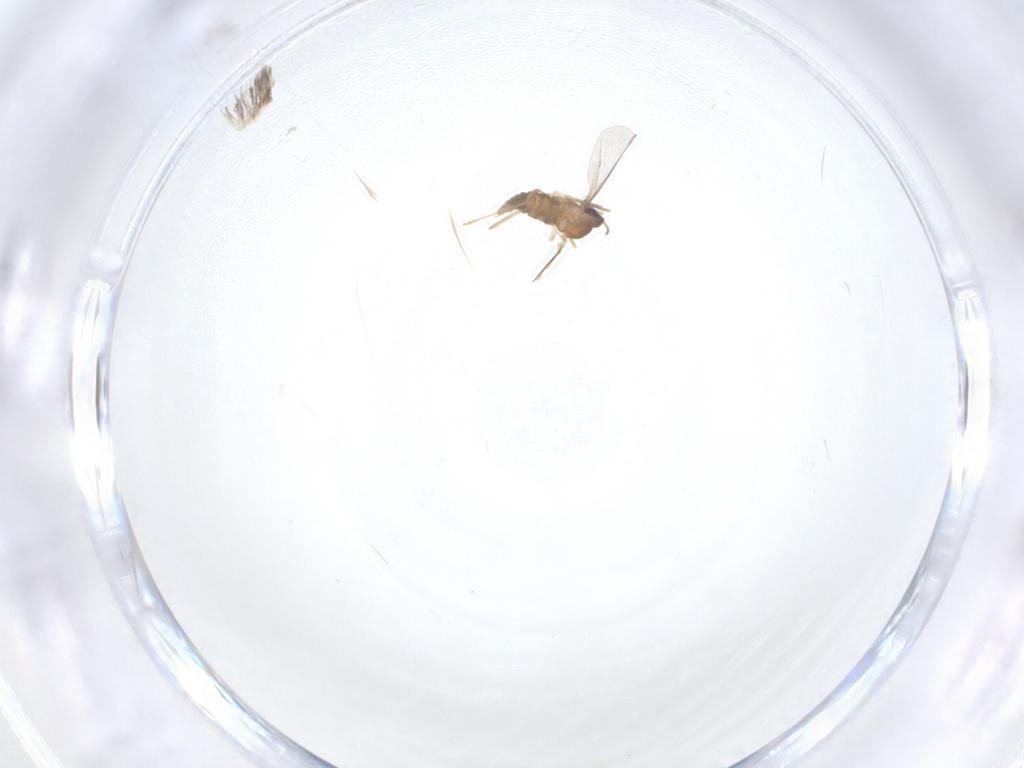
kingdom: Animalia
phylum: Arthropoda
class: Insecta
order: Diptera
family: Cecidomyiidae
